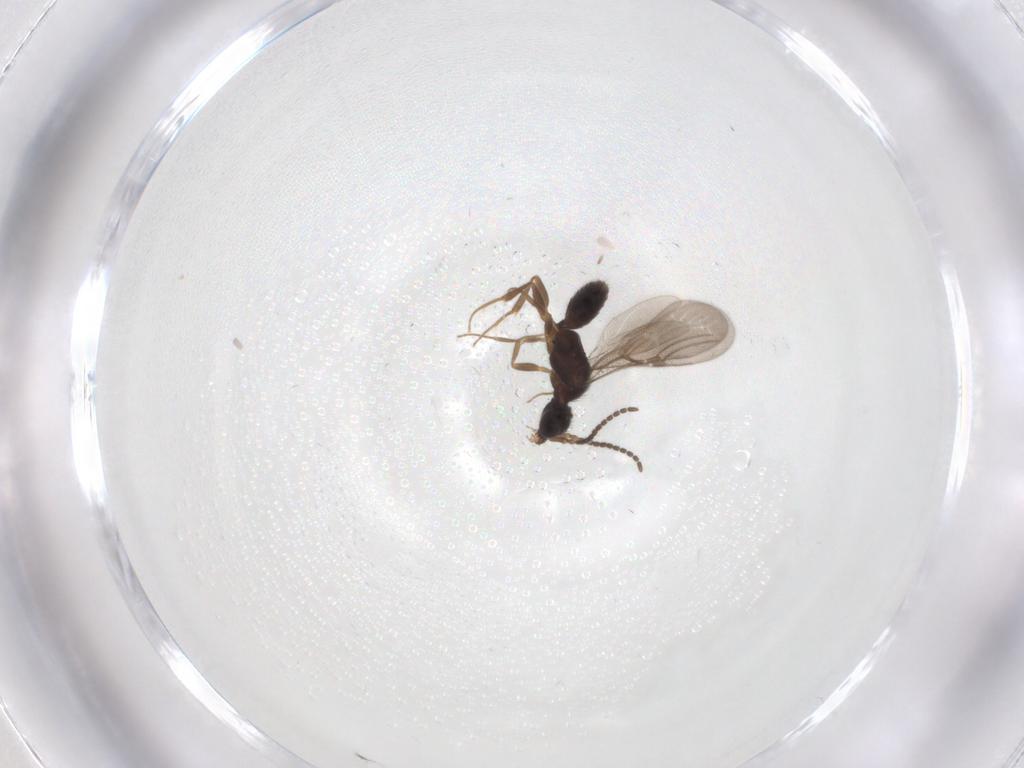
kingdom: Animalia
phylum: Arthropoda
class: Insecta
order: Hymenoptera
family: Bethylidae
